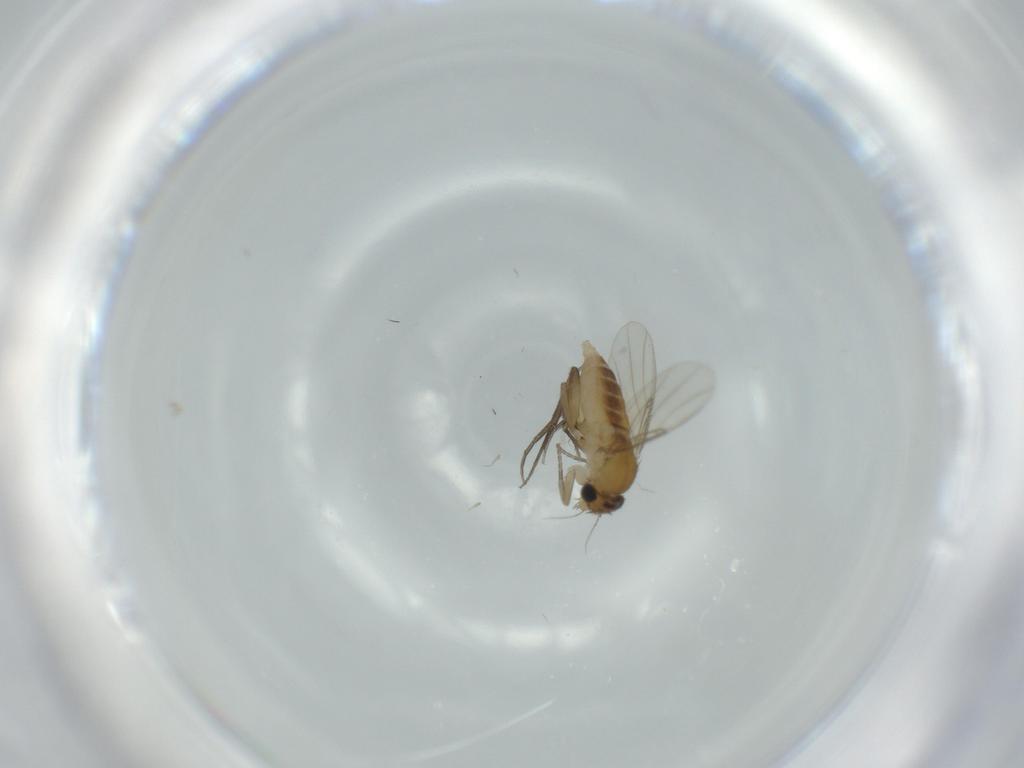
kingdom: Animalia
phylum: Arthropoda
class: Insecta
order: Diptera
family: Phoridae
